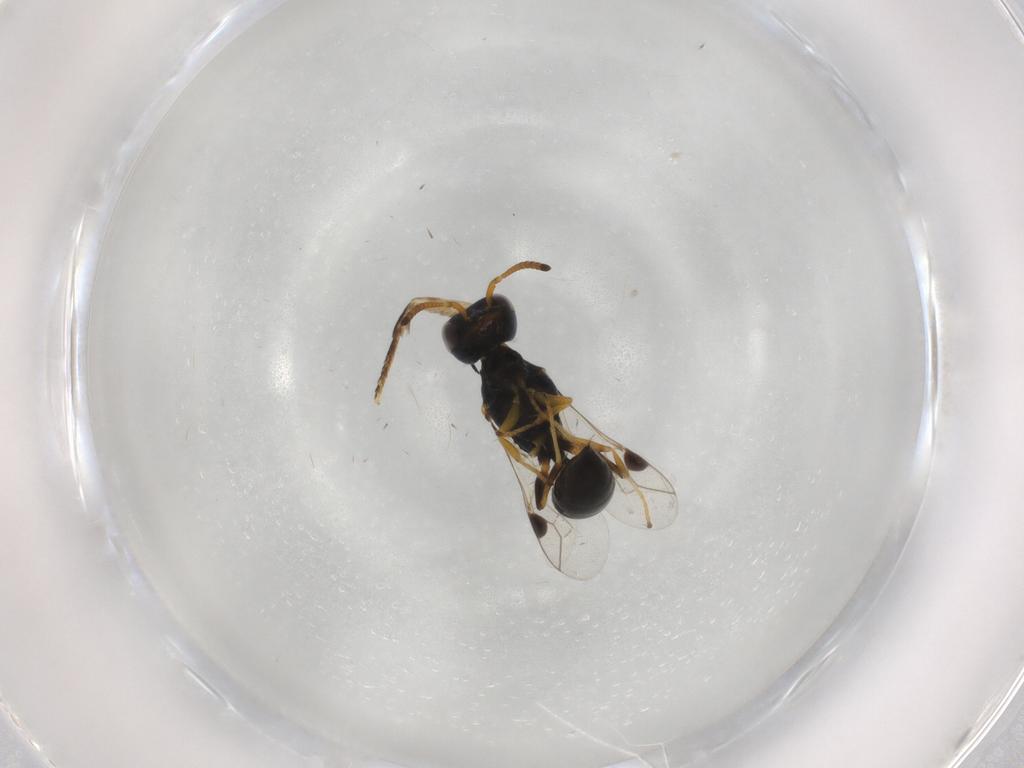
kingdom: Animalia
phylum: Arthropoda
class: Insecta
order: Hymenoptera
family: Pemphredonidae
